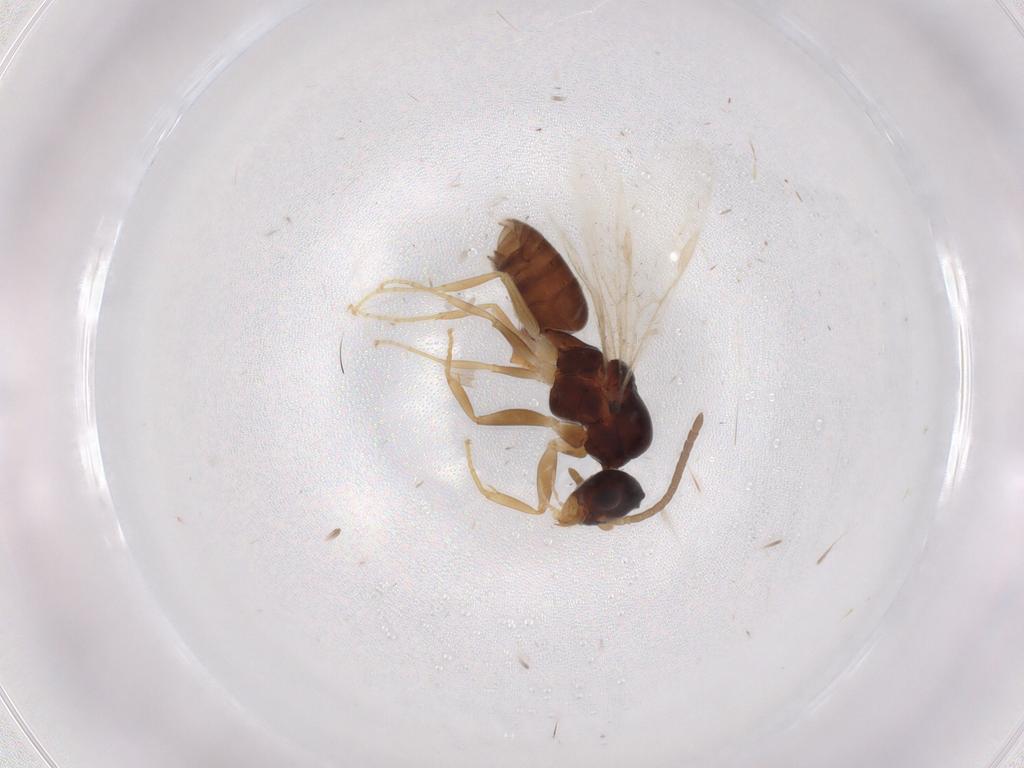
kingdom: Animalia
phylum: Arthropoda
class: Insecta
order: Hymenoptera
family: Formicidae
